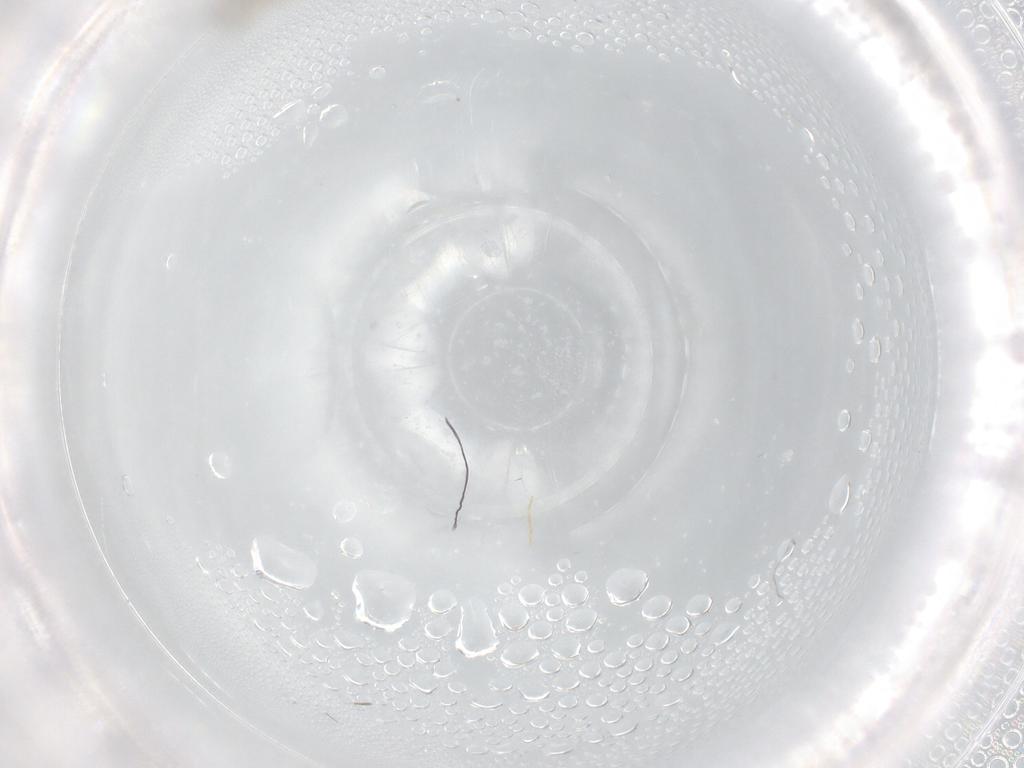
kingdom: Animalia
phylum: Arthropoda
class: Insecta
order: Diptera
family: Cecidomyiidae
